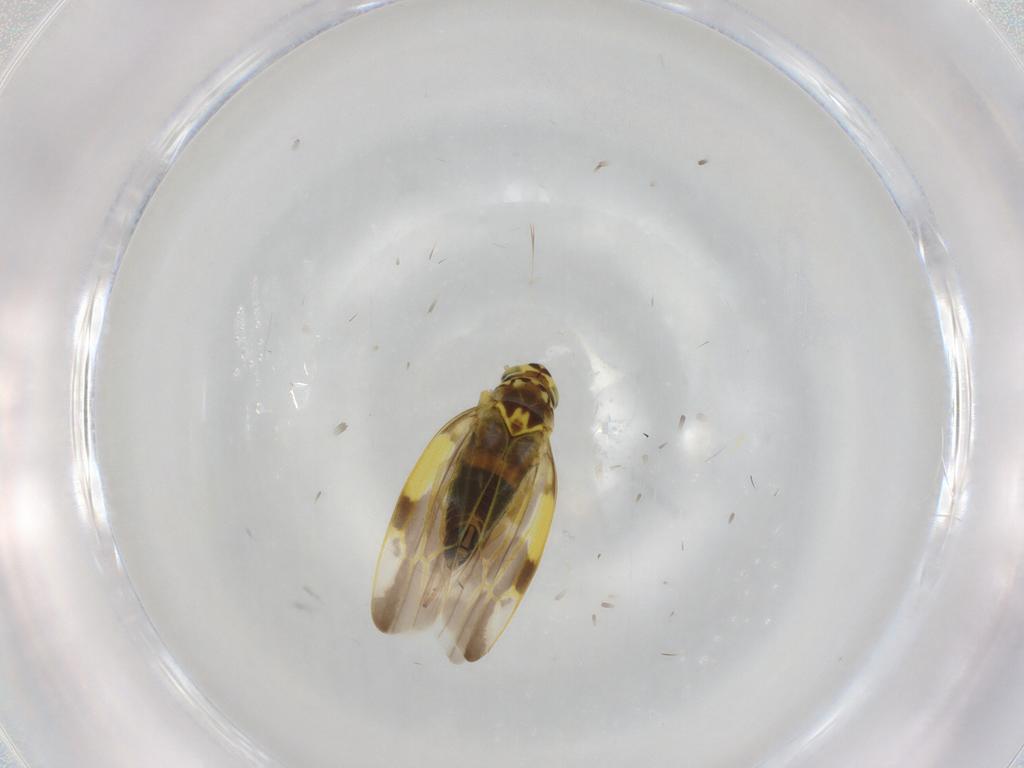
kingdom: Animalia
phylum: Arthropoda
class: Insecta
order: Hemiptera
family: Cicadellidae
